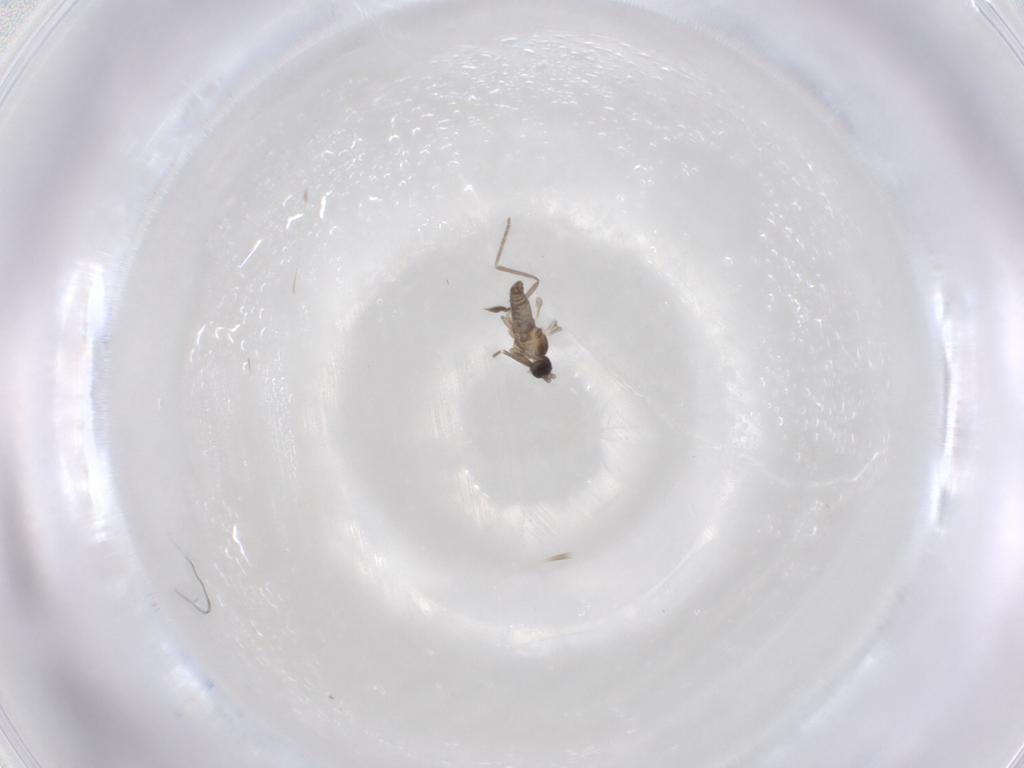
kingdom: Animalia
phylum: Arthropoda
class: Insecta
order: Diptera
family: Cecidomyiidae
